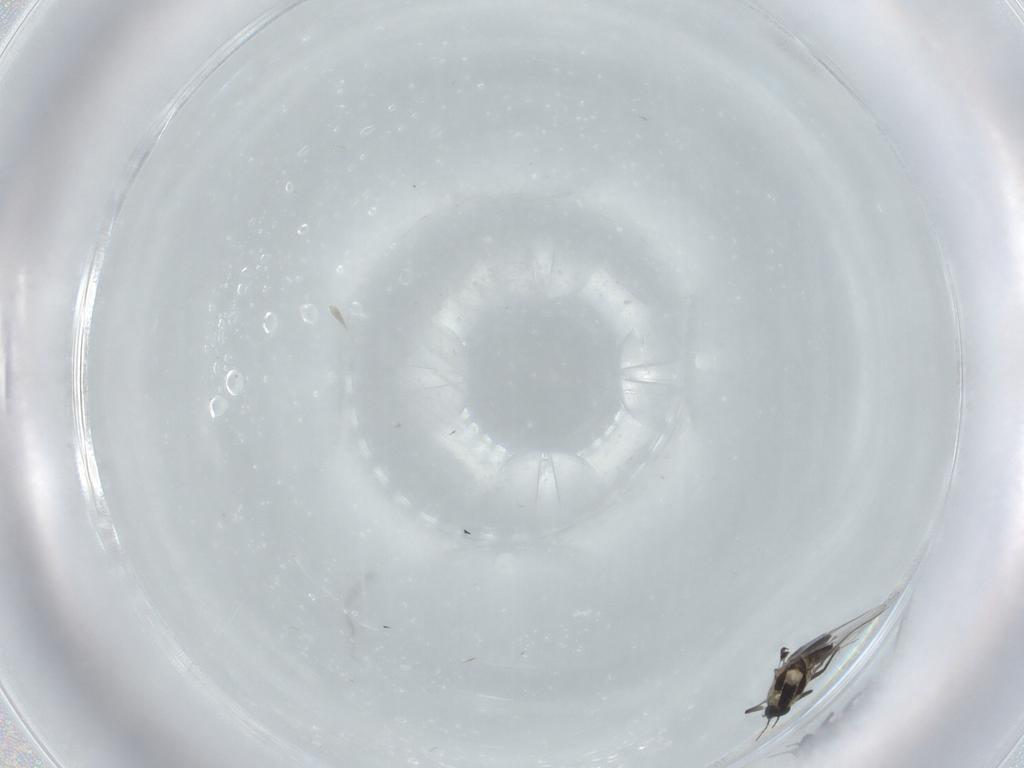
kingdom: Animalia
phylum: Arthropoda
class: Insecta
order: Diptera
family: Chironomidae
